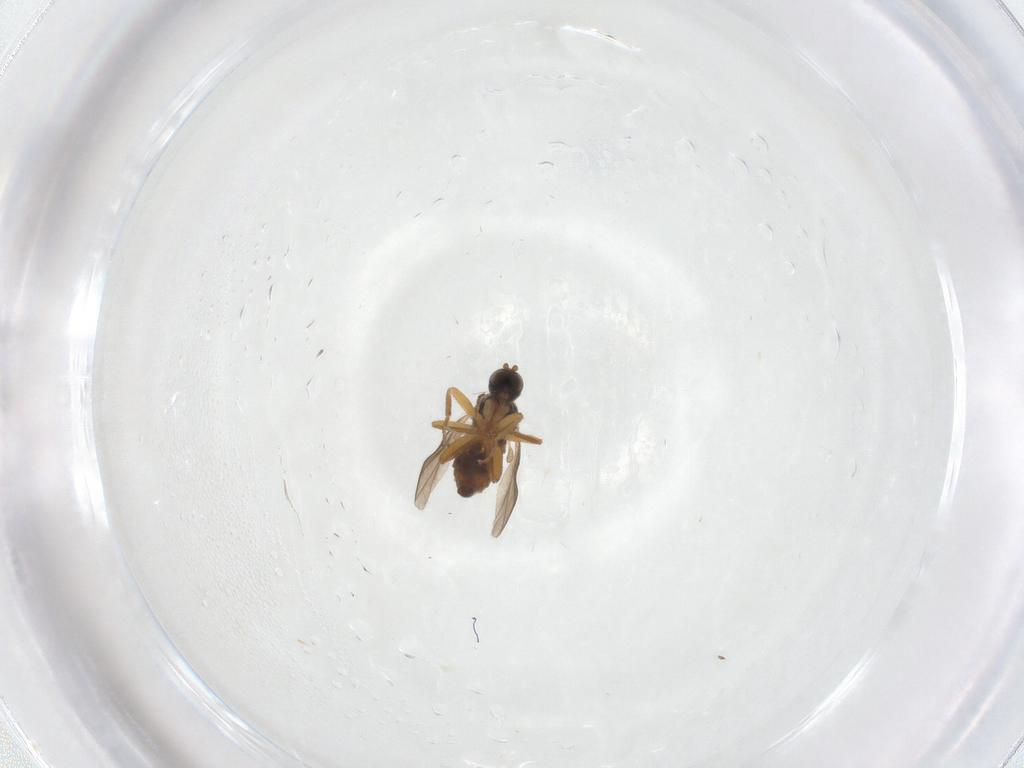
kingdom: Animalia
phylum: Arthropoda
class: Insecta
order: Diptera
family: Hybotidae
